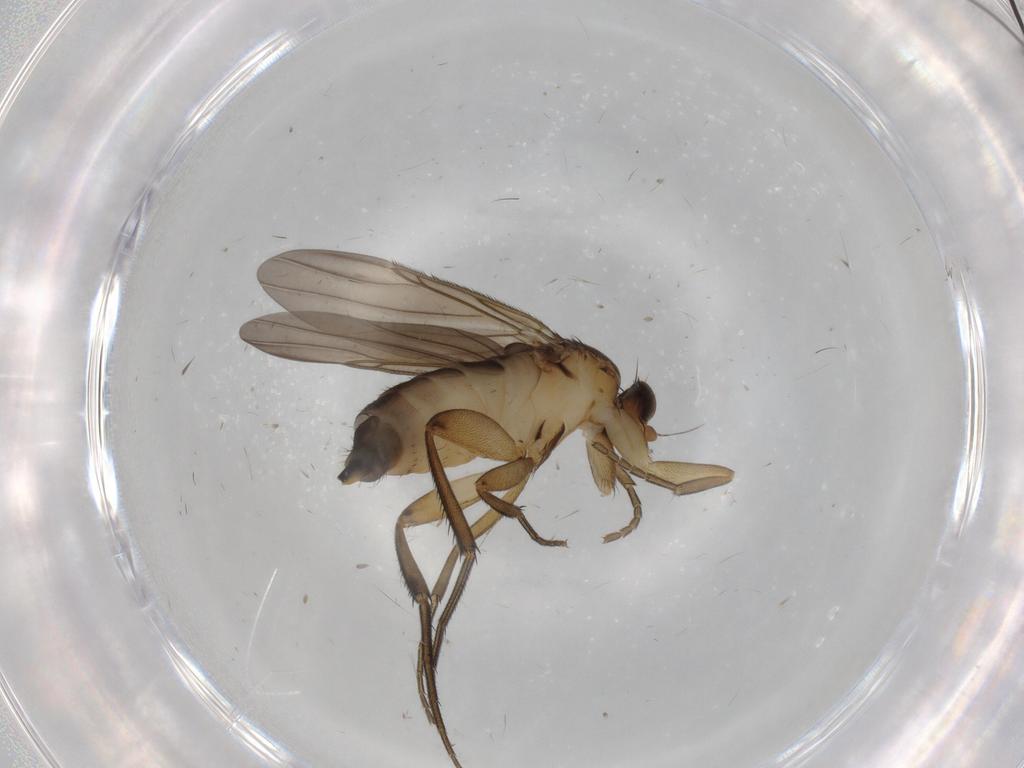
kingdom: Animalia
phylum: Arthropoda
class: Insecta
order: Diptera
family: Phoridae
